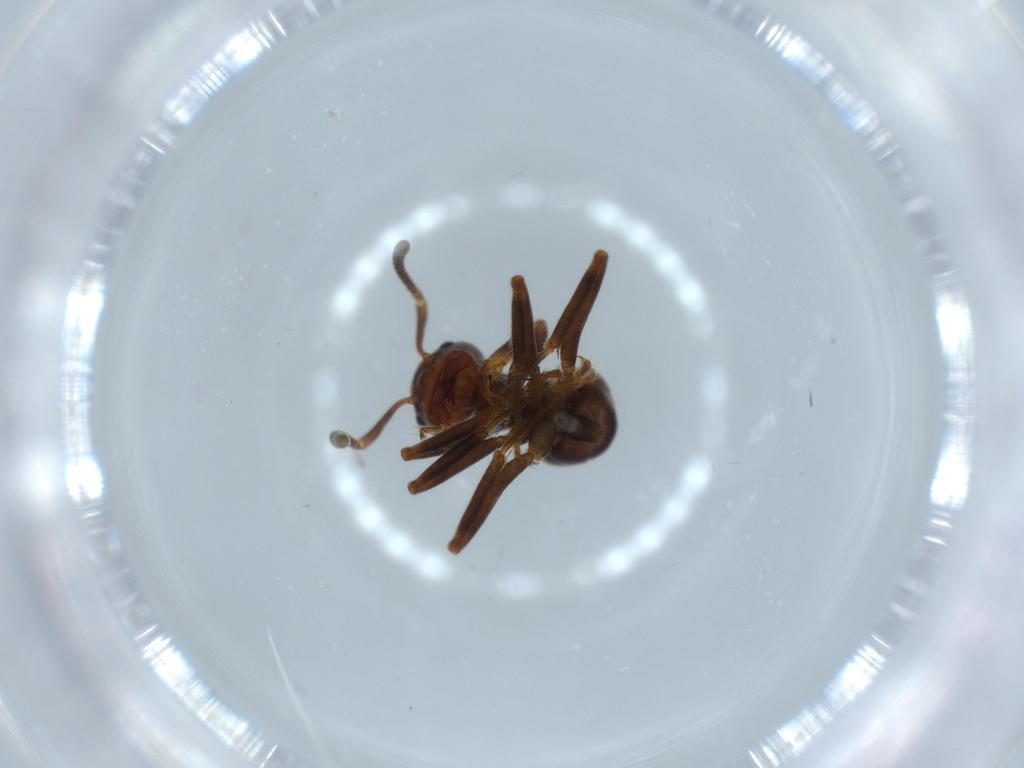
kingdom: Animalia
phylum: Arthropoda
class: Insecta
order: Hymenoptera
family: Formicidae
